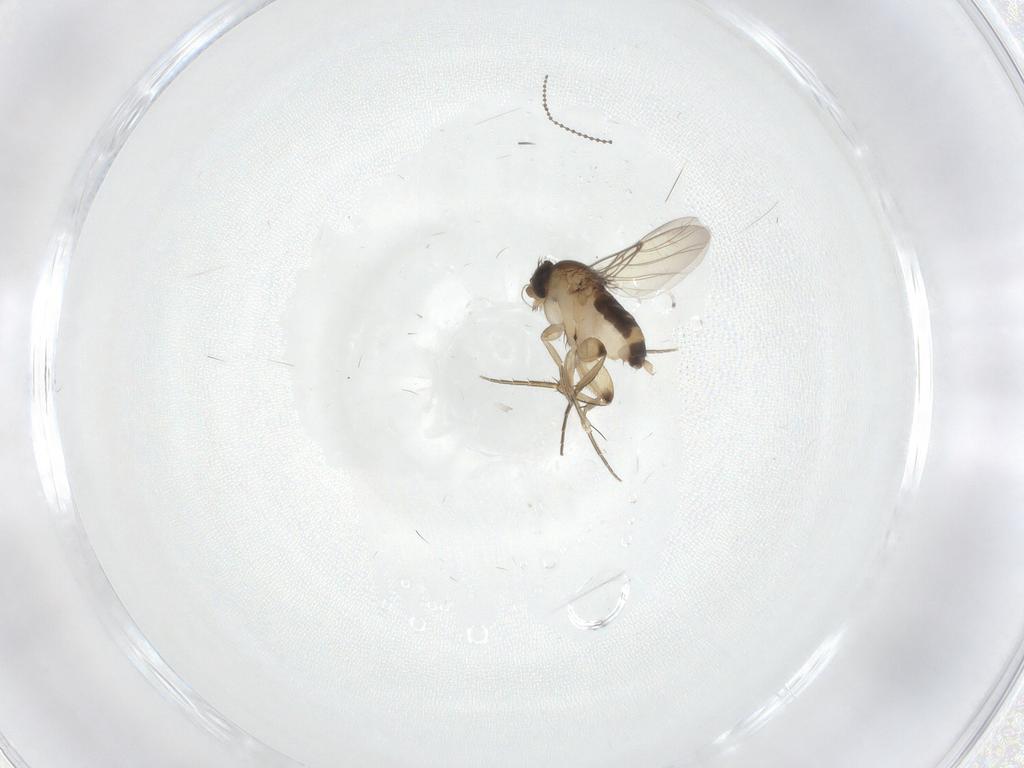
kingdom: Animalia
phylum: Arthropoda
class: Insecta
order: Diptera
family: Phoridae
